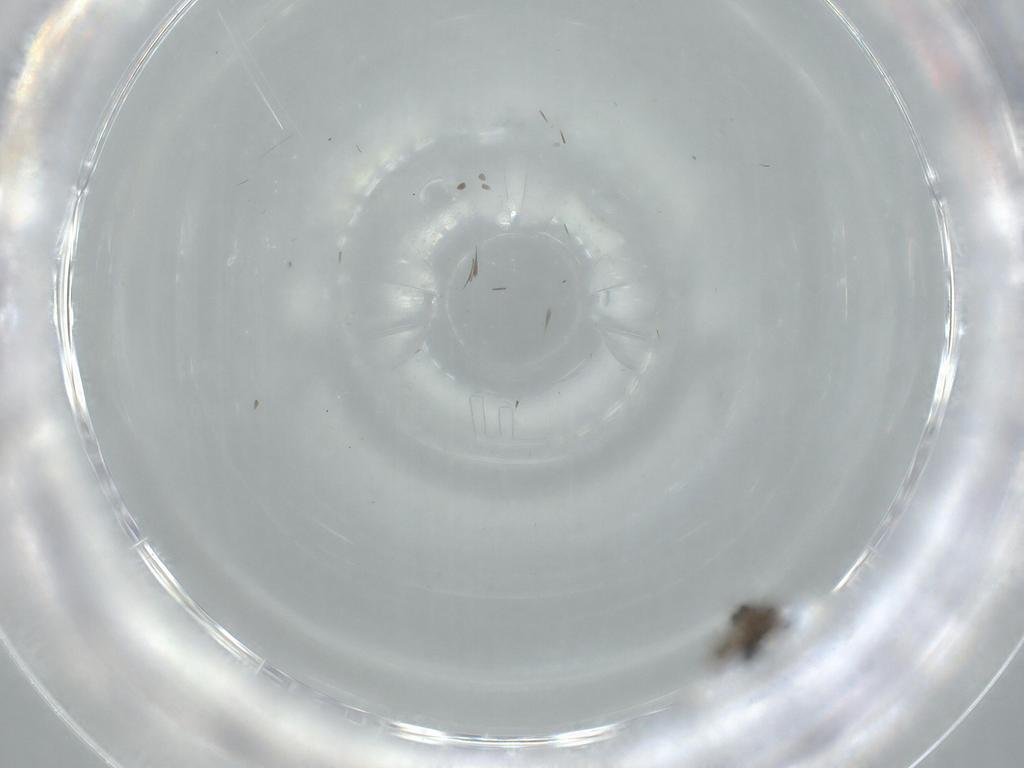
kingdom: Animalia
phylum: Arthropoda
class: Insecta
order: Diptera
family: Phoridae
